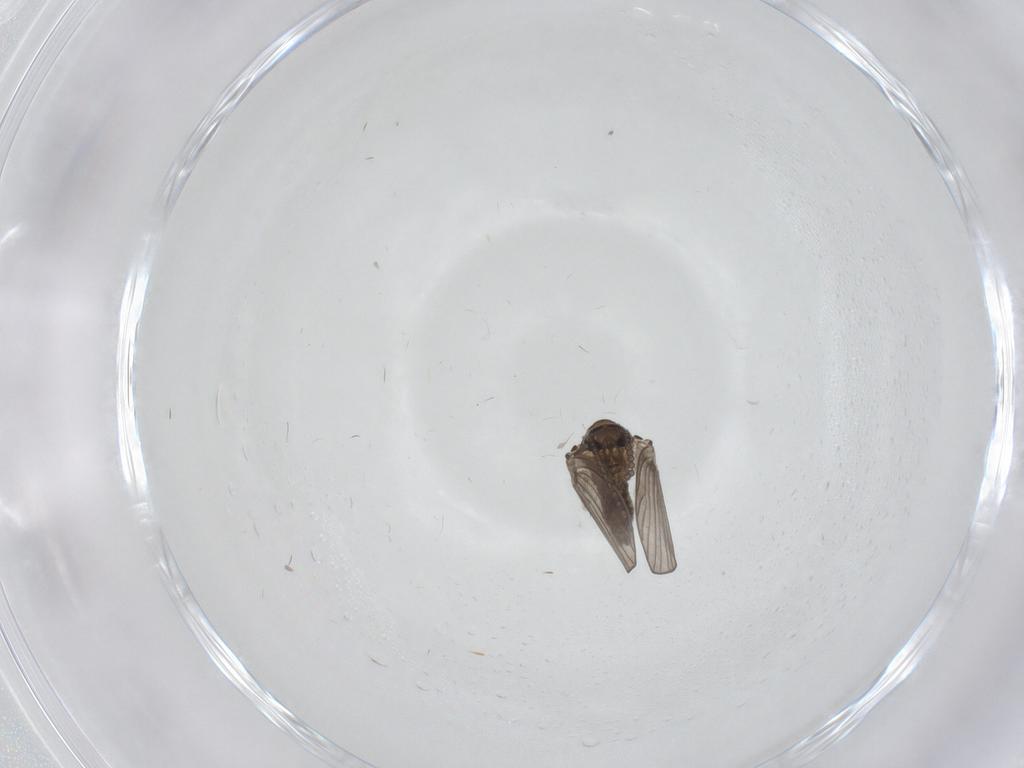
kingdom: Animalia
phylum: Arthropoda
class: Insecta
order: Diptera
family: Psychodidae
